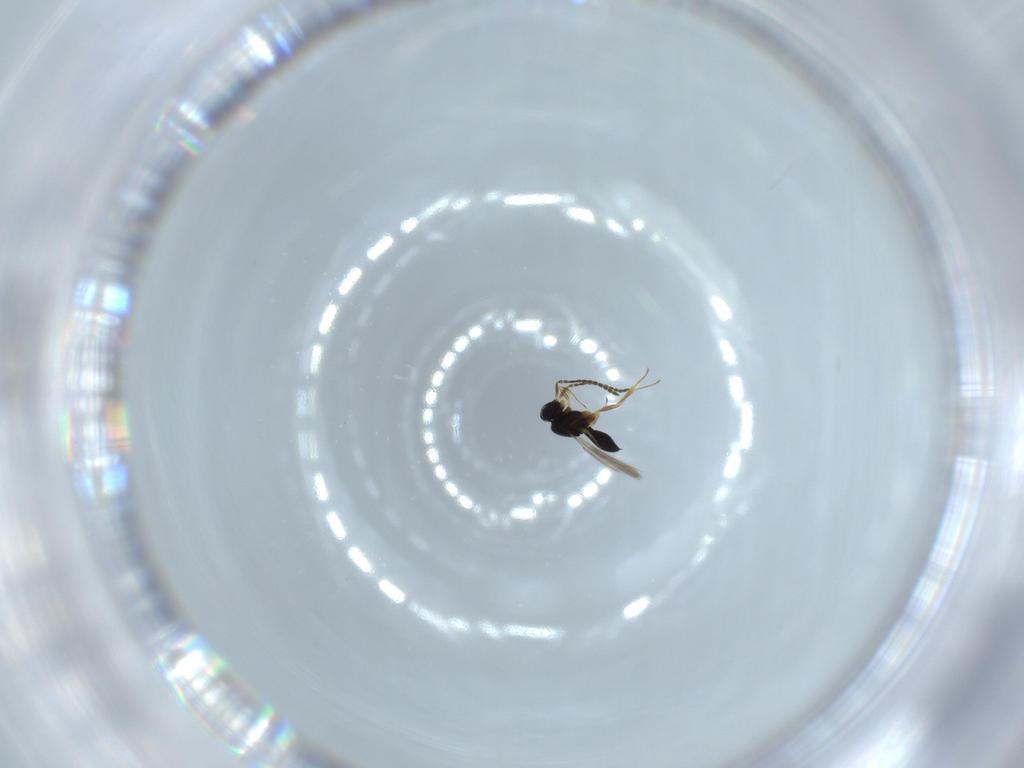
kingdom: Animalia
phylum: Arthropoda
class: Insecta
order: Hymenoptera
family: Scelionidae
